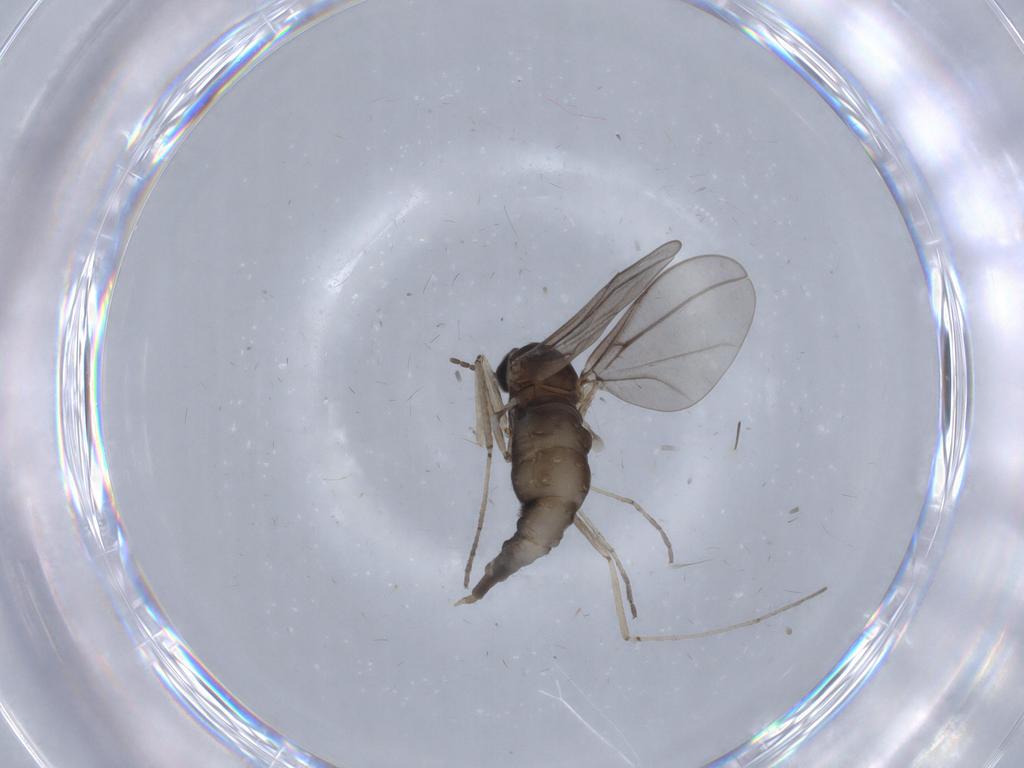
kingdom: Animalia
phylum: Arthropoda
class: Insecta
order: Diptera
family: Cecidomyiidae
